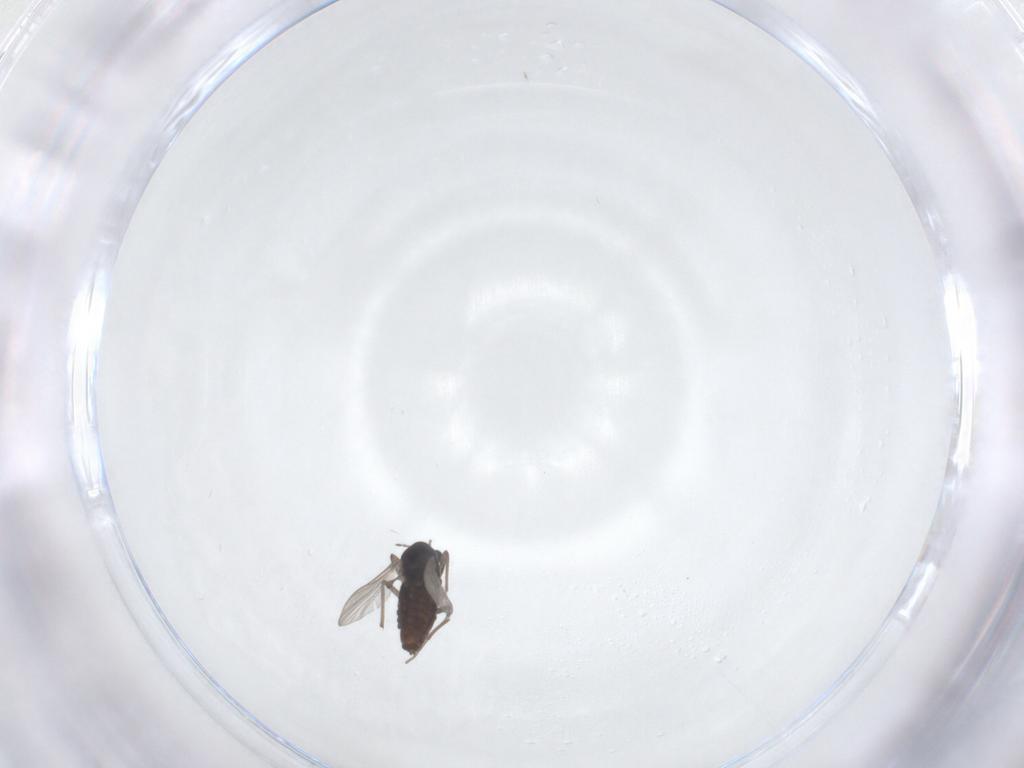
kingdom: Animalia
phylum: Arthropoda
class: Insecta
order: Diptera
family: Chironomidae
